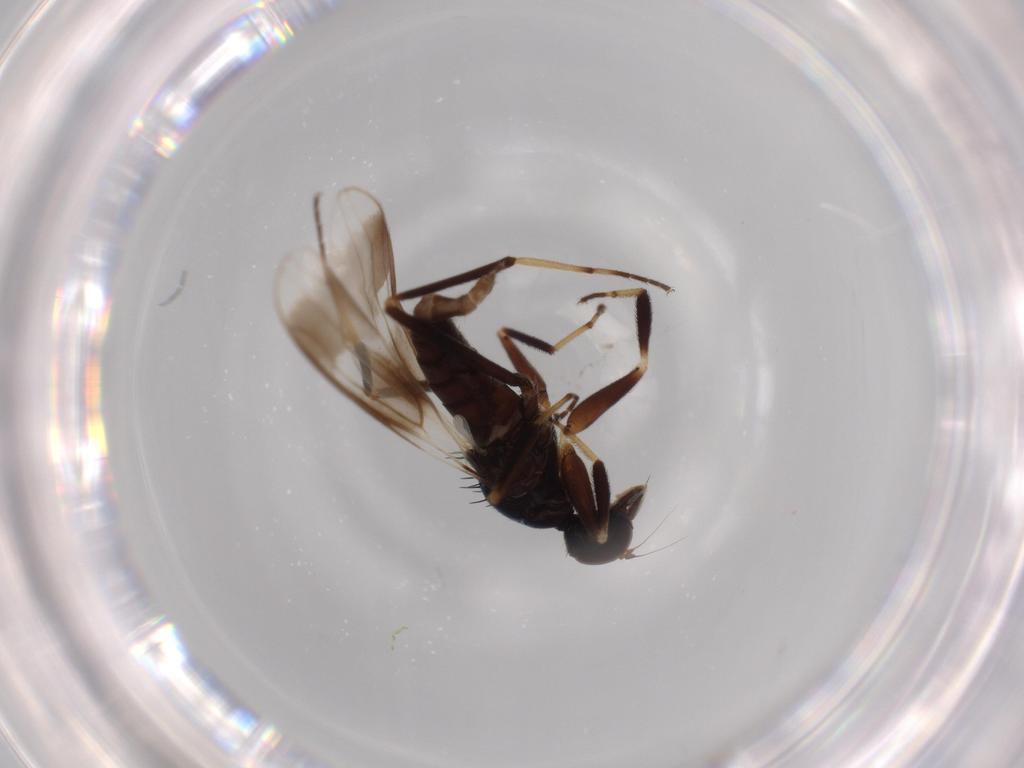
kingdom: Animalia
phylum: Arthropoda
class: Insecta
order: Diptera
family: Hybotidae
